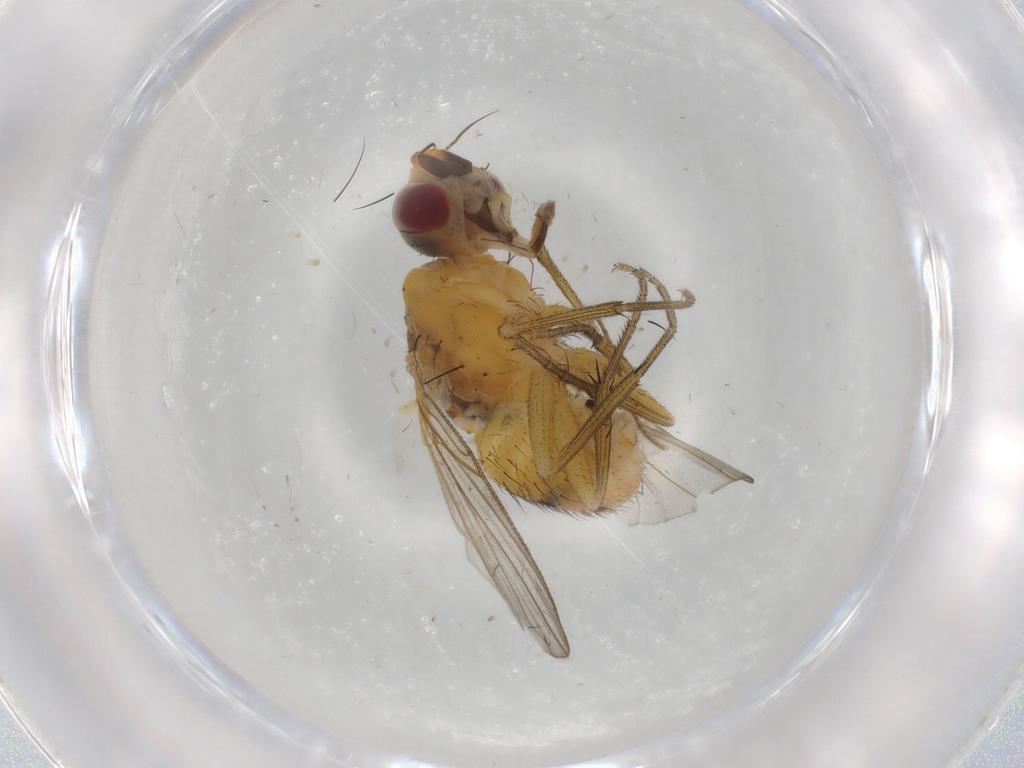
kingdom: Animalia
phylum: Arthropoda
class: Insecta
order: Diptera
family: Muscidae
